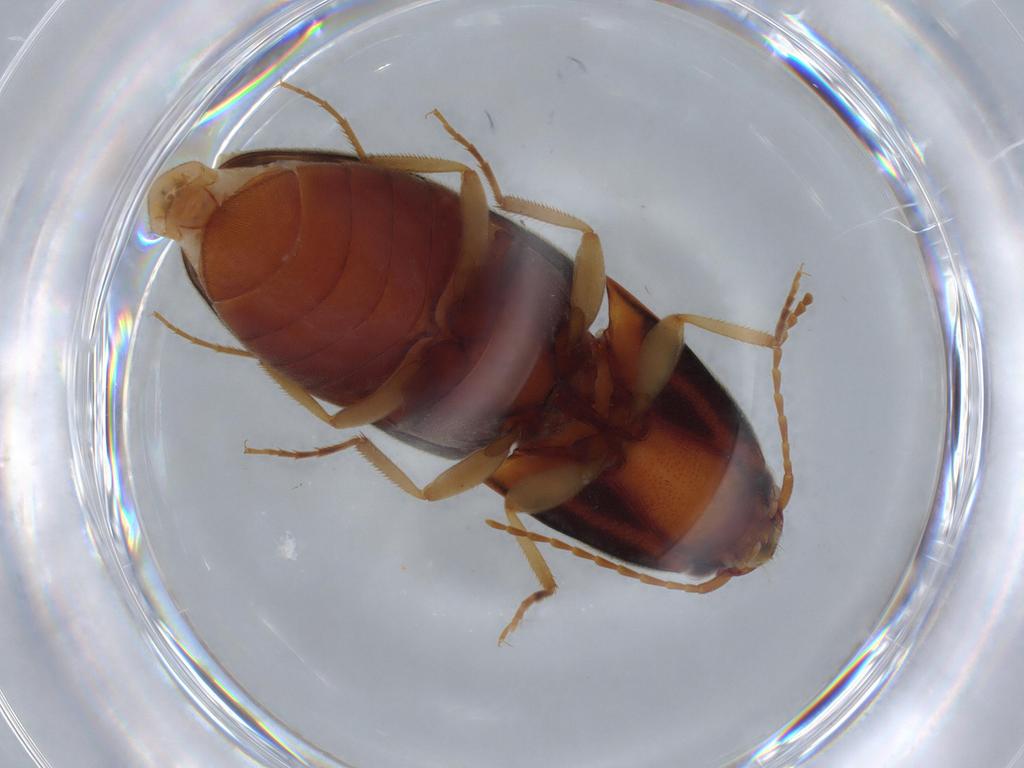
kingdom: Animalia
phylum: Arthropoda
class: Insecta
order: Coleoptera
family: Elateridae
